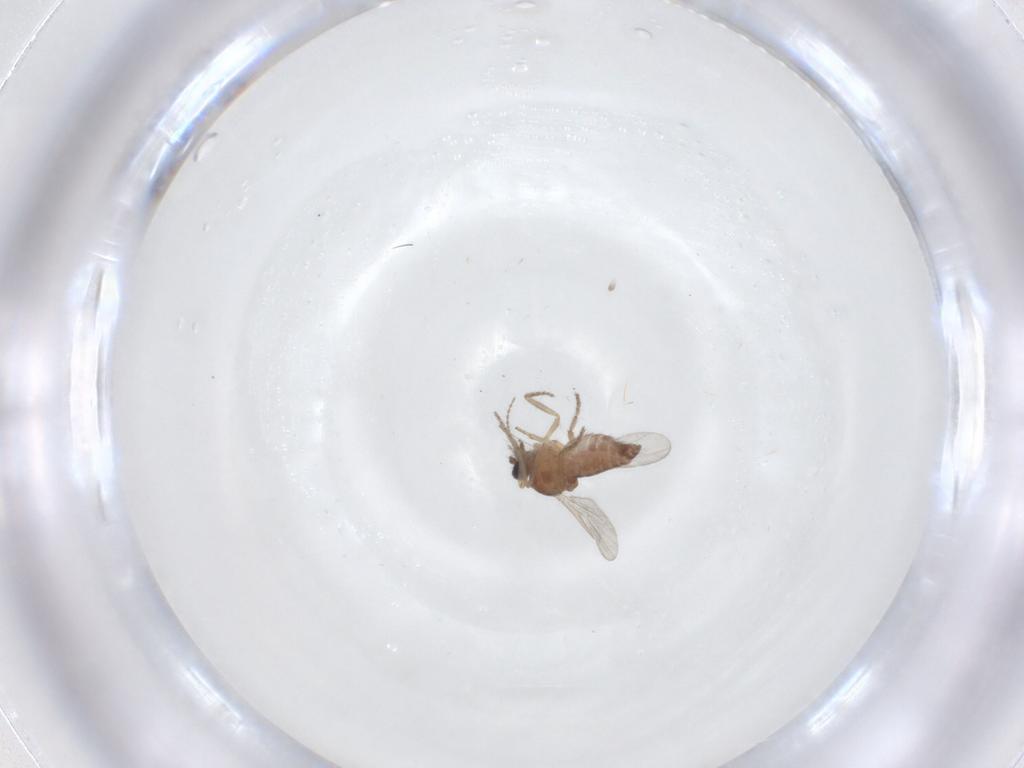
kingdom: Animalia
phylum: Arthropoda
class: Insecta
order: Diptera
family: Ceratopogonidae
